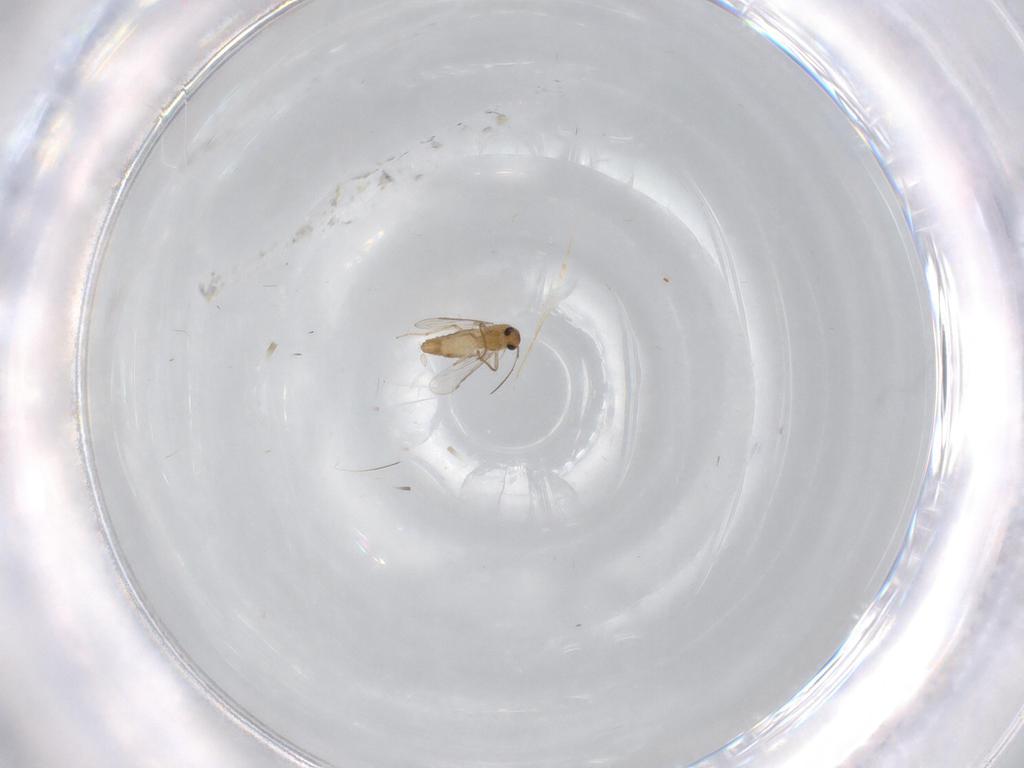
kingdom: Animalia
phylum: Arthropoda
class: Insecta
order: Diptera
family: Chironomidae
